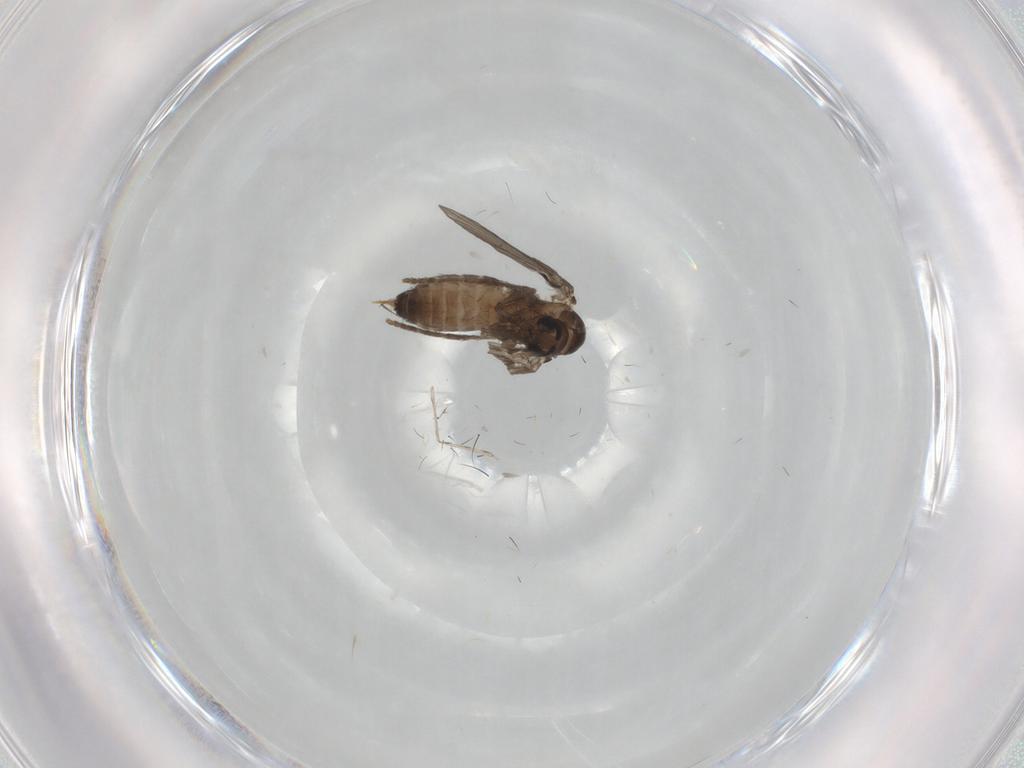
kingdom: Animalia
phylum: Arthropoda
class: Insecta
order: Diptera
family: Psychodidae
